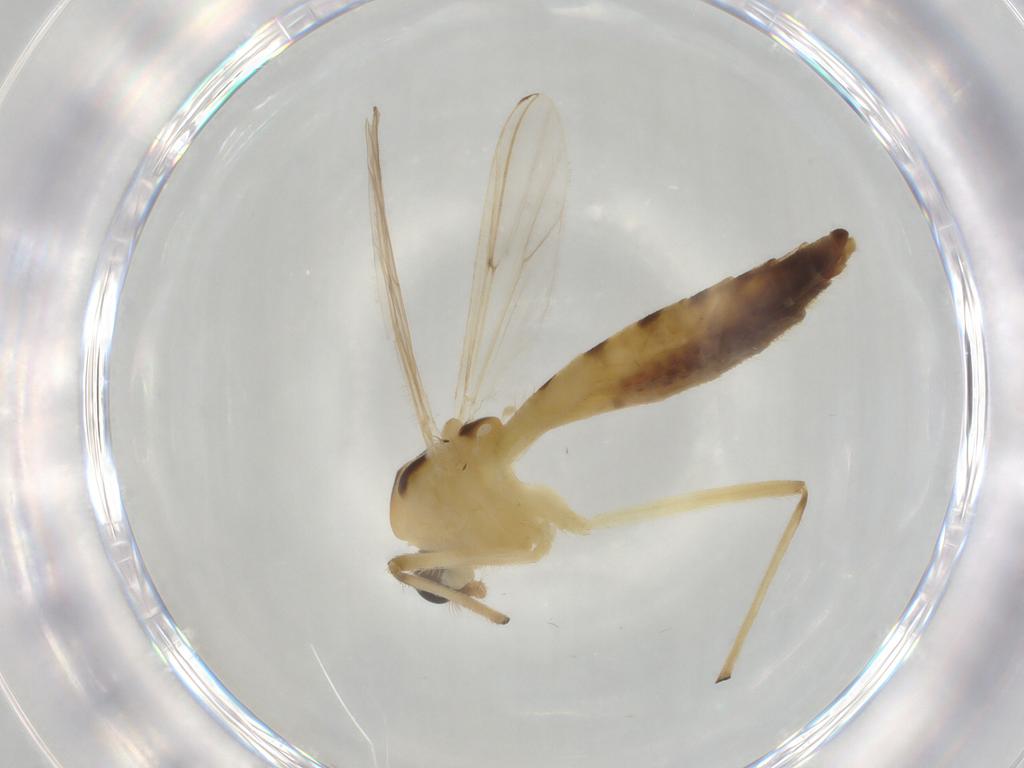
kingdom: Animalia
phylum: Arthropoda
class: Insecta
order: Diptera
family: Chironomidae
